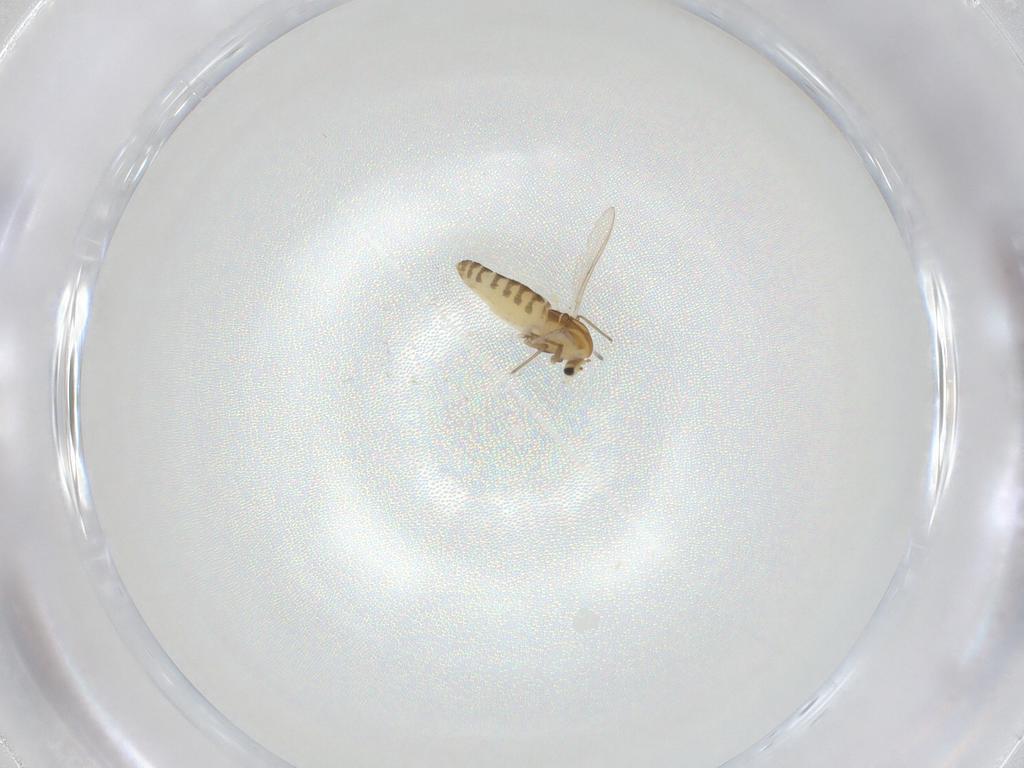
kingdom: Animalia
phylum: Arthropoda
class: Insecta
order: Diptera
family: Chironomidae
